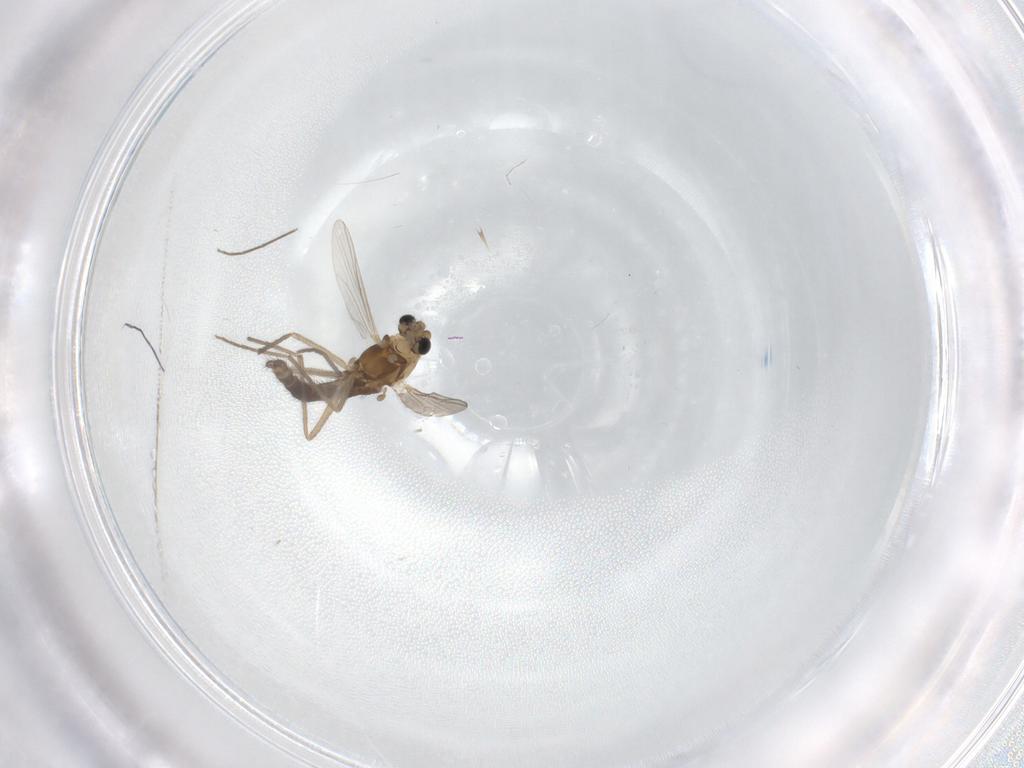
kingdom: Animalia
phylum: Arthropoda
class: Insecta
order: Diptera
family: Chironomidae
